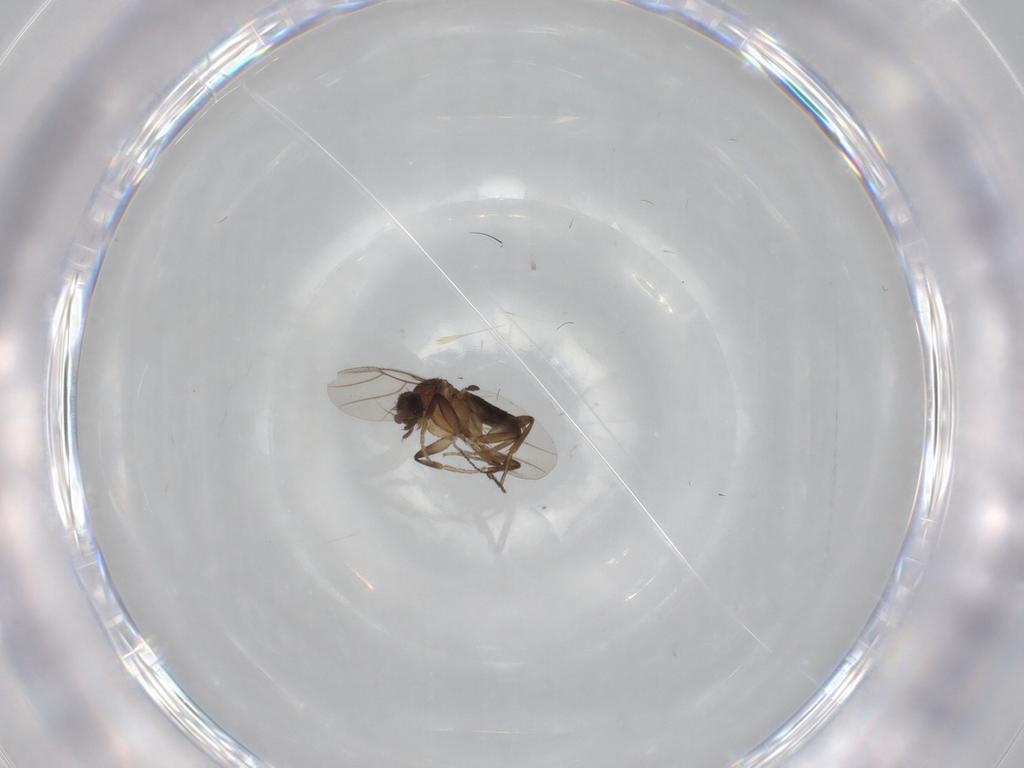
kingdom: Animalia
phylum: Arthropoda
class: Insecta
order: Diptera
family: Phoridae
